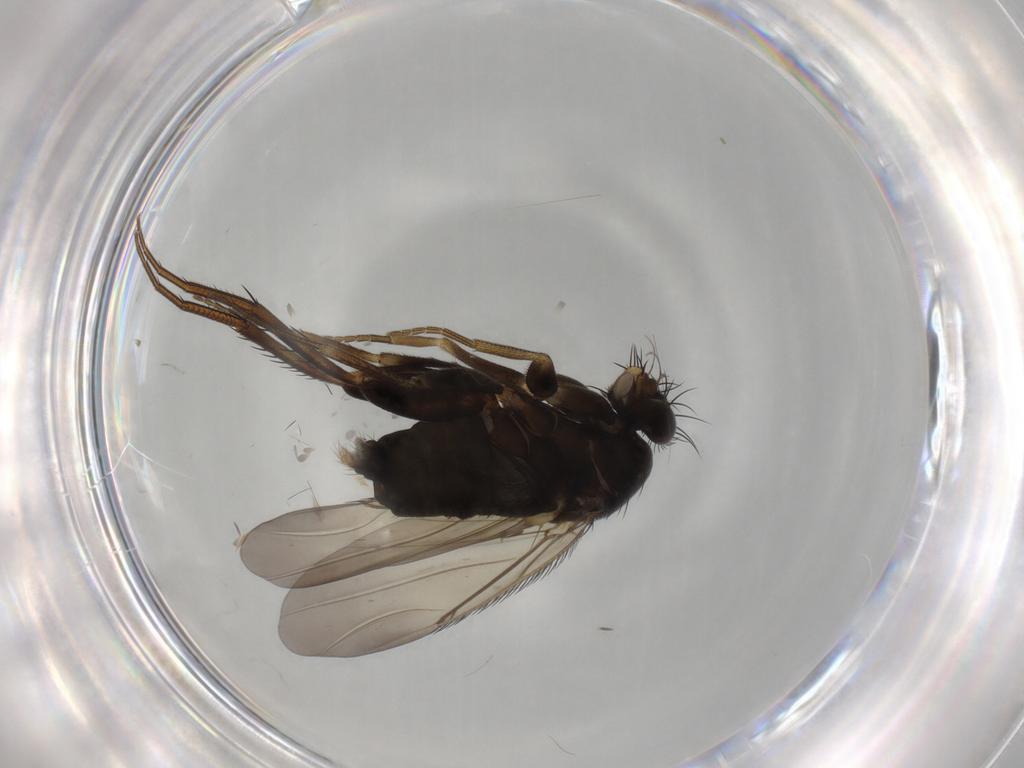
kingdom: Animalia
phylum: Arthropoda
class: Insecta
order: Diptera
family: Phoridae
